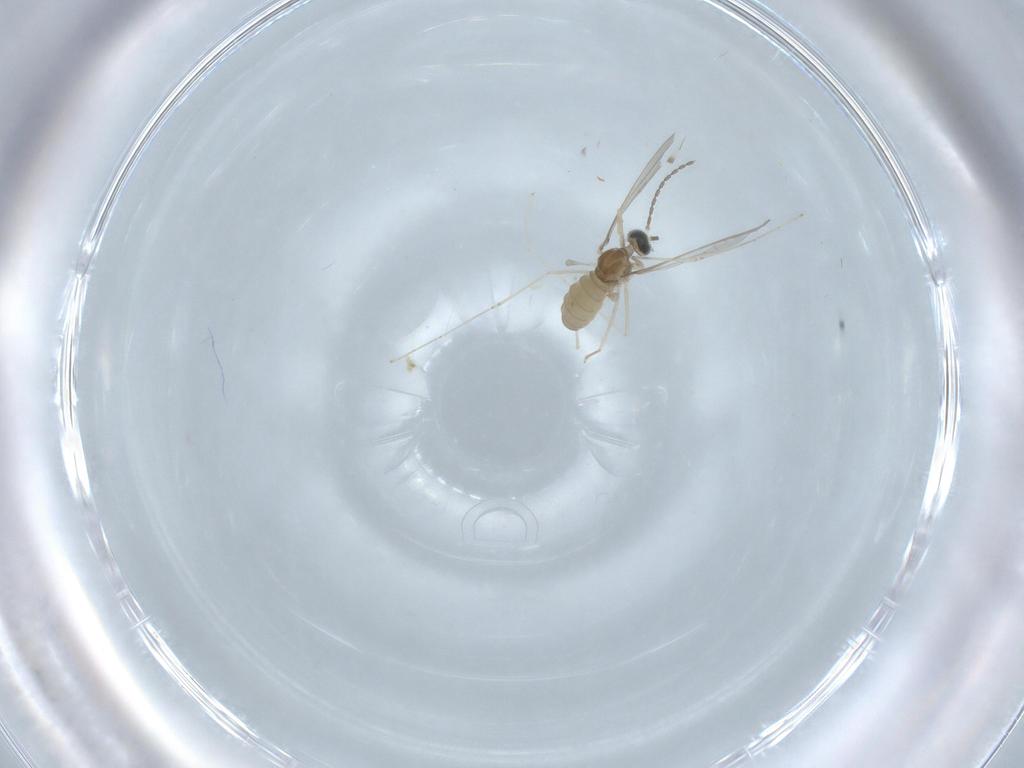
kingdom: Animalia
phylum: Arthropoda
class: Insecta
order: Diptera
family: Cecidomyiidae
